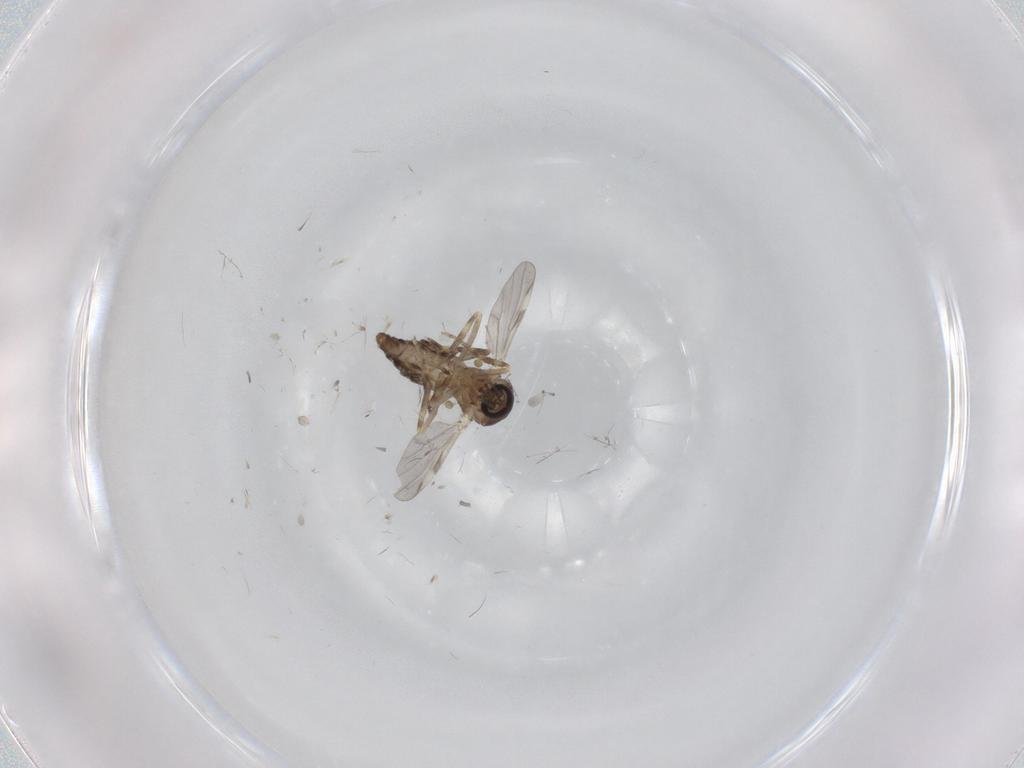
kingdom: Animalia
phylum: Arthropoda
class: Insecta
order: Diptera
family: Ceratopogonidae
